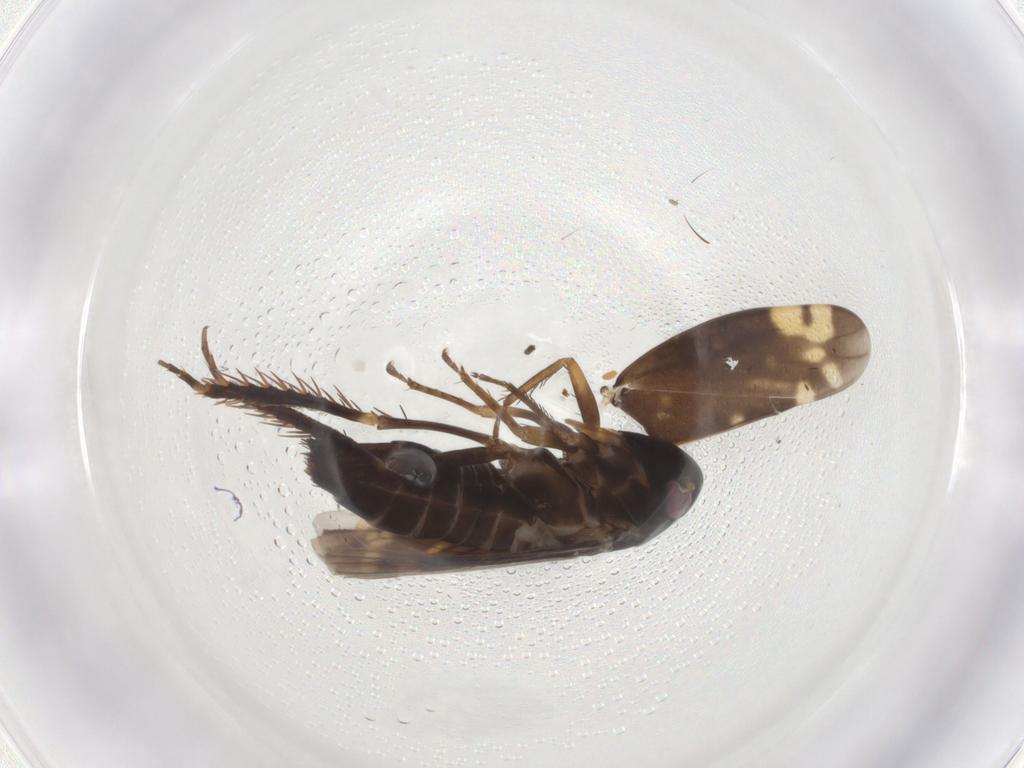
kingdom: Animalia
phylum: Arthropoda
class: Insecta
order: Hemiptera
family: Cicadellidae
